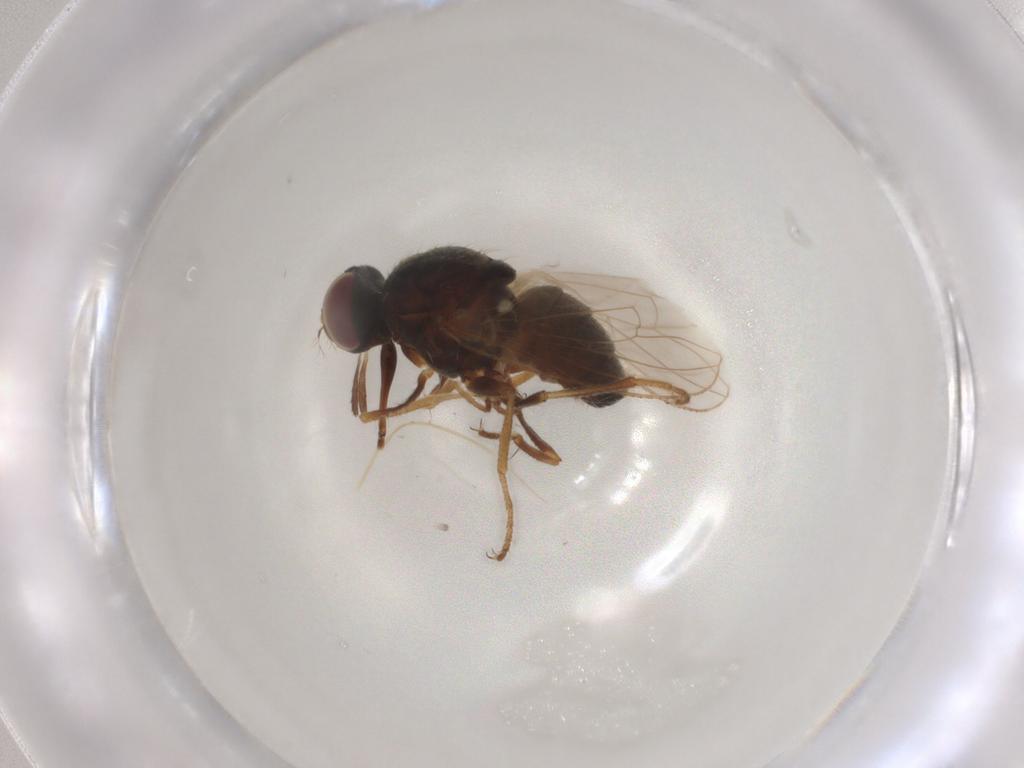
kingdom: Animalia
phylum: Arthropoda
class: Insecta
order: Diptera
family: Muscidae
